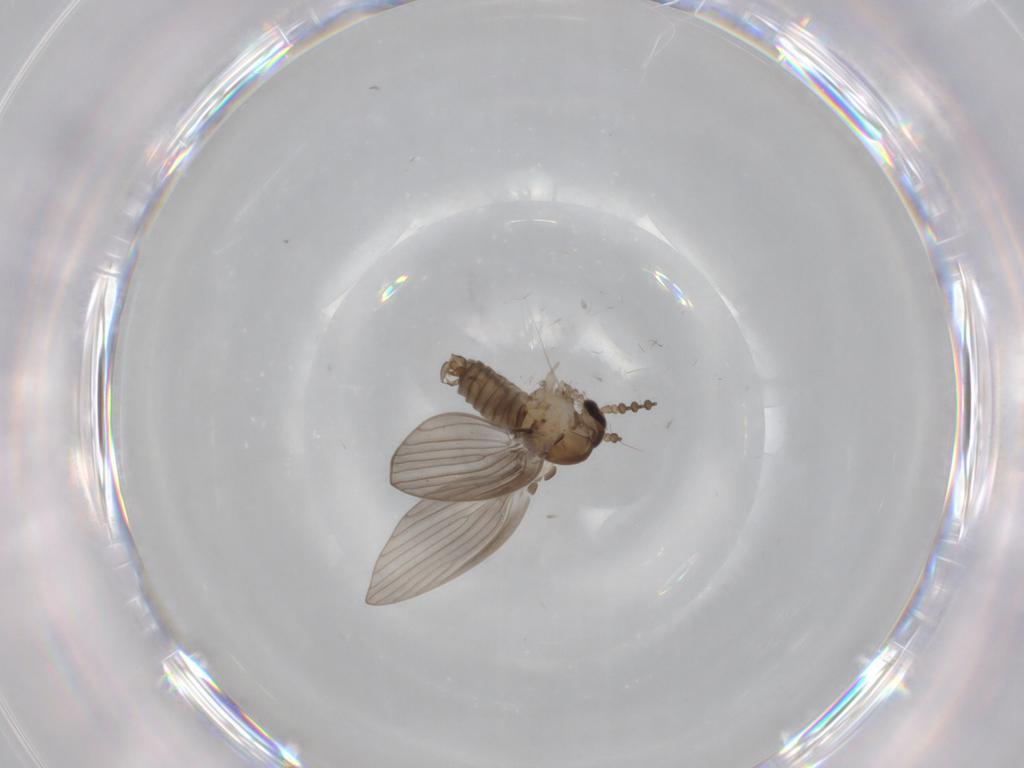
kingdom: Animalia
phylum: Arthropoda
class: Insecta
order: Diptera
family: Psychodidae
